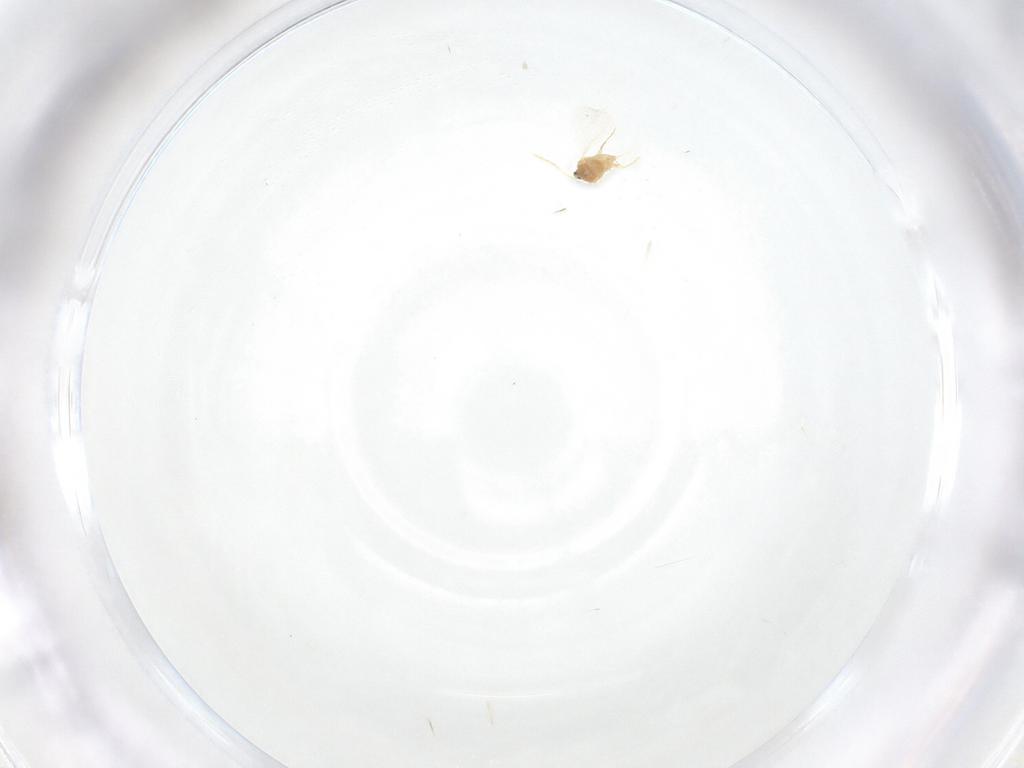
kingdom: Animalia
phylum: Arthropoda
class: Insecta
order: Hemiptera
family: Diaspididae
